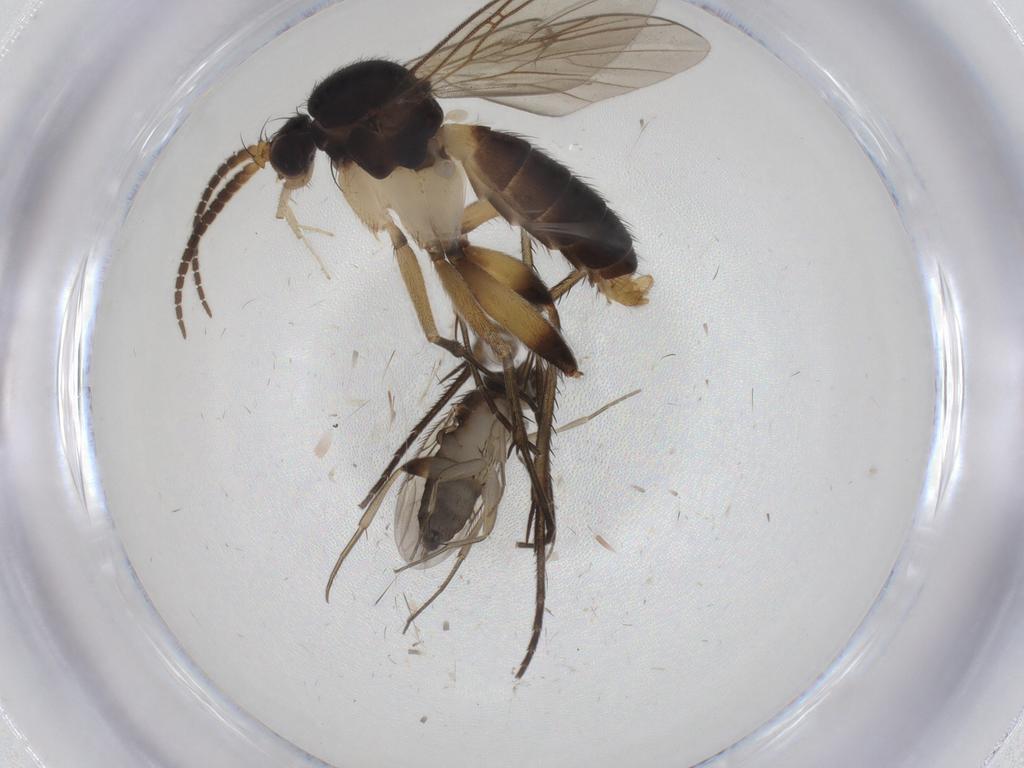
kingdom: Animalia
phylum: Arthropoda
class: Insecta
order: Diptera
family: Mycetophilidae
